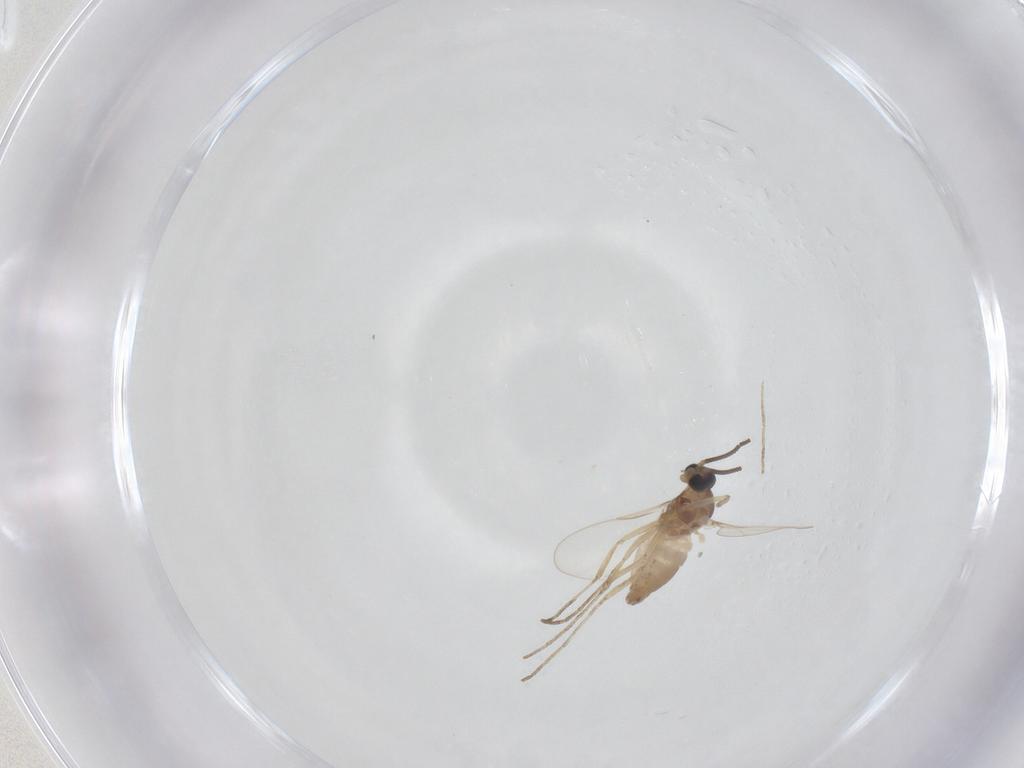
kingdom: Animalia
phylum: Arthropoda
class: Insecta
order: Diptera
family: Cecidomyiidae
